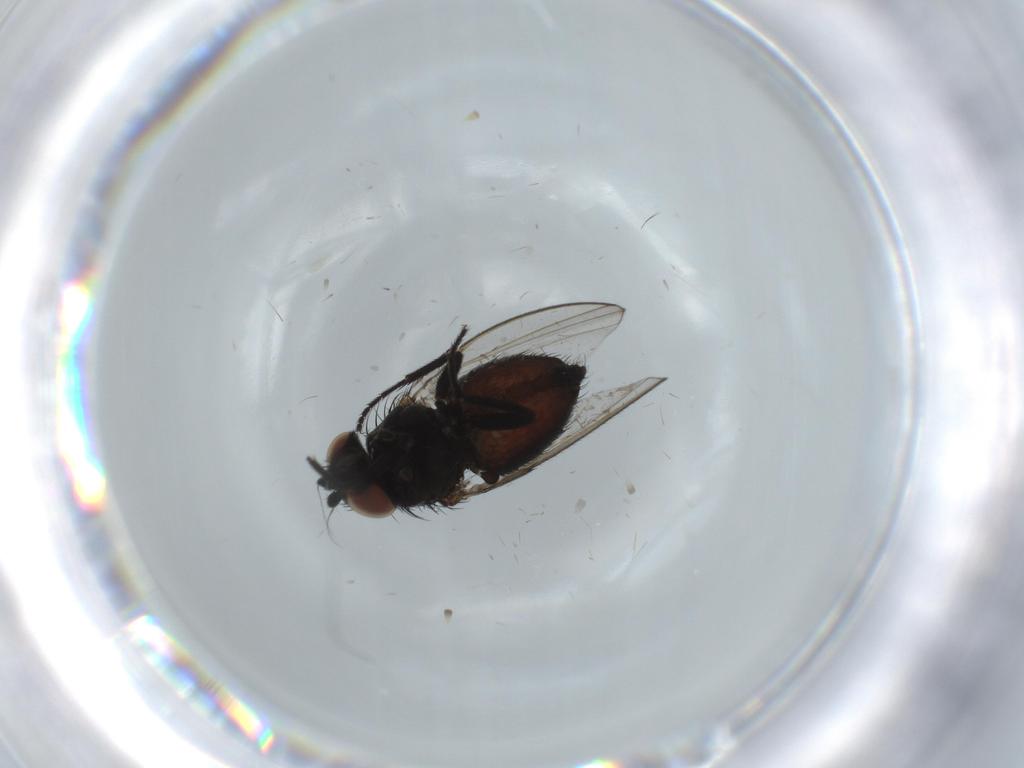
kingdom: Animalia
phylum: Arthropoda
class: Insecta
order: Diptera
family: Milichiidae
